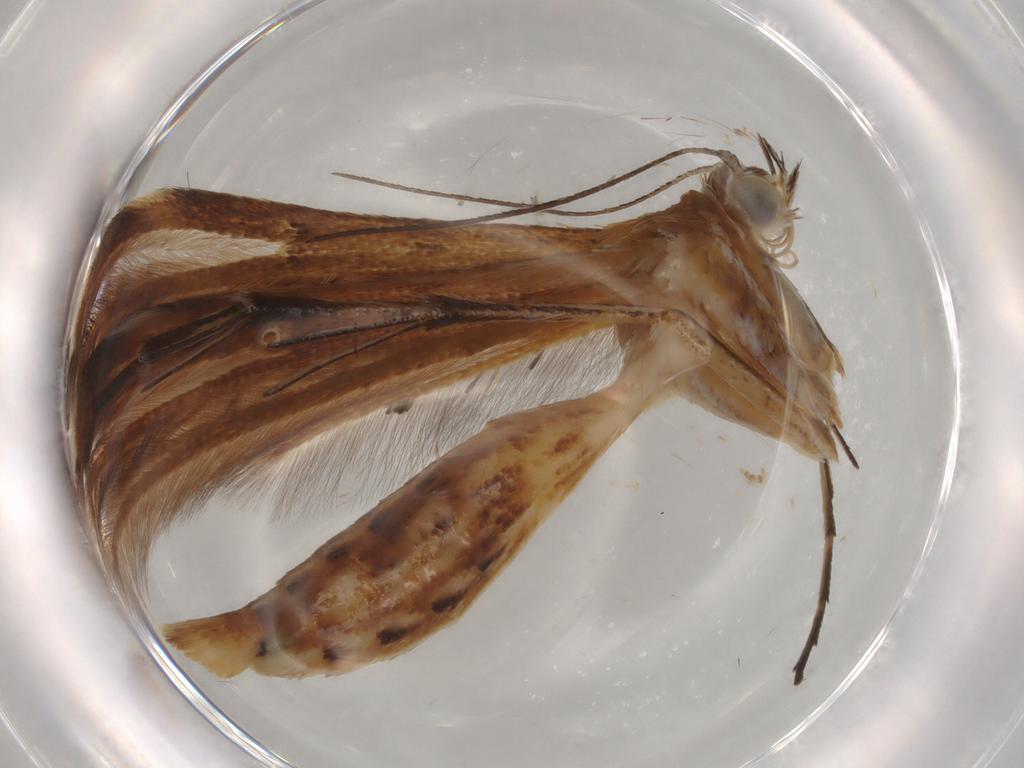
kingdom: Animalia
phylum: Arthropoda
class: Insecta
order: Lepidoptera
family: Pterophoridae
